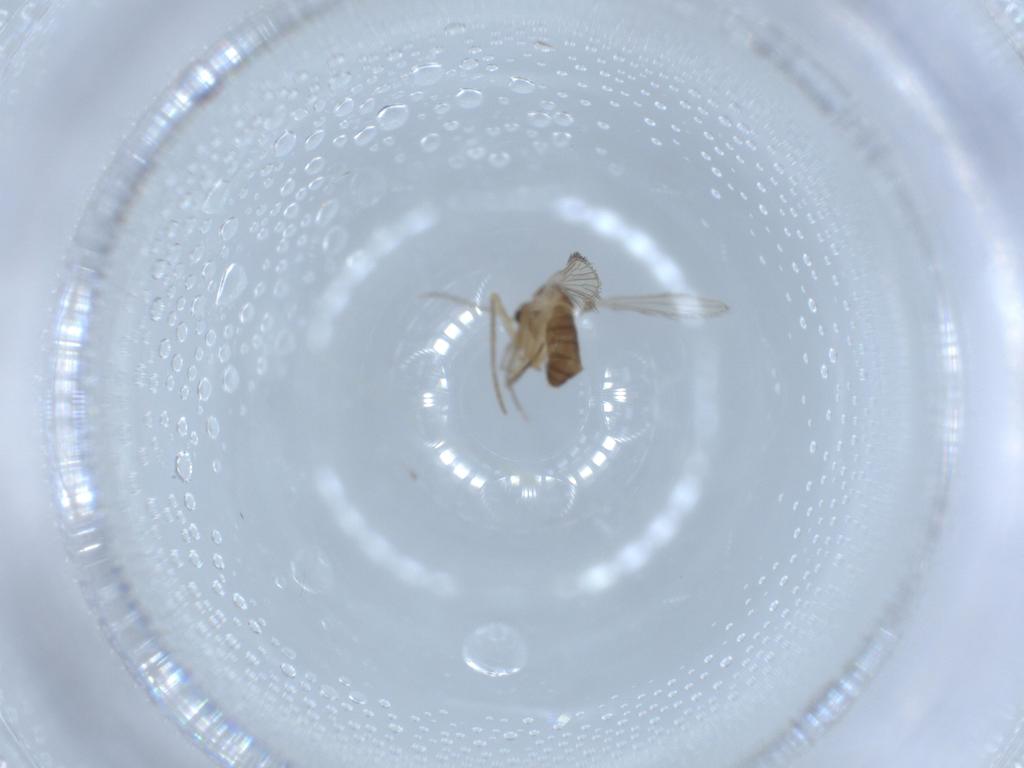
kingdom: Animalia
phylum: Arthropoda
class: Insecta
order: Diptera
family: Psychodidae
